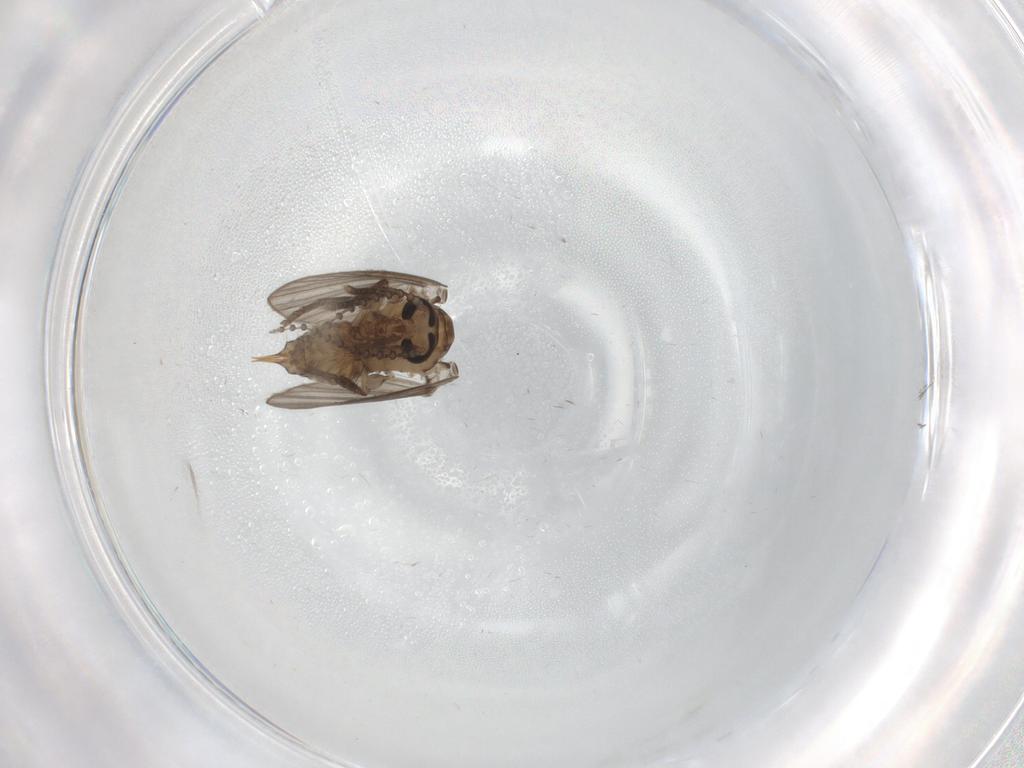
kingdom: Animalia
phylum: Arthropoda
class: Insecta
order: Diptera
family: Psychodidae
